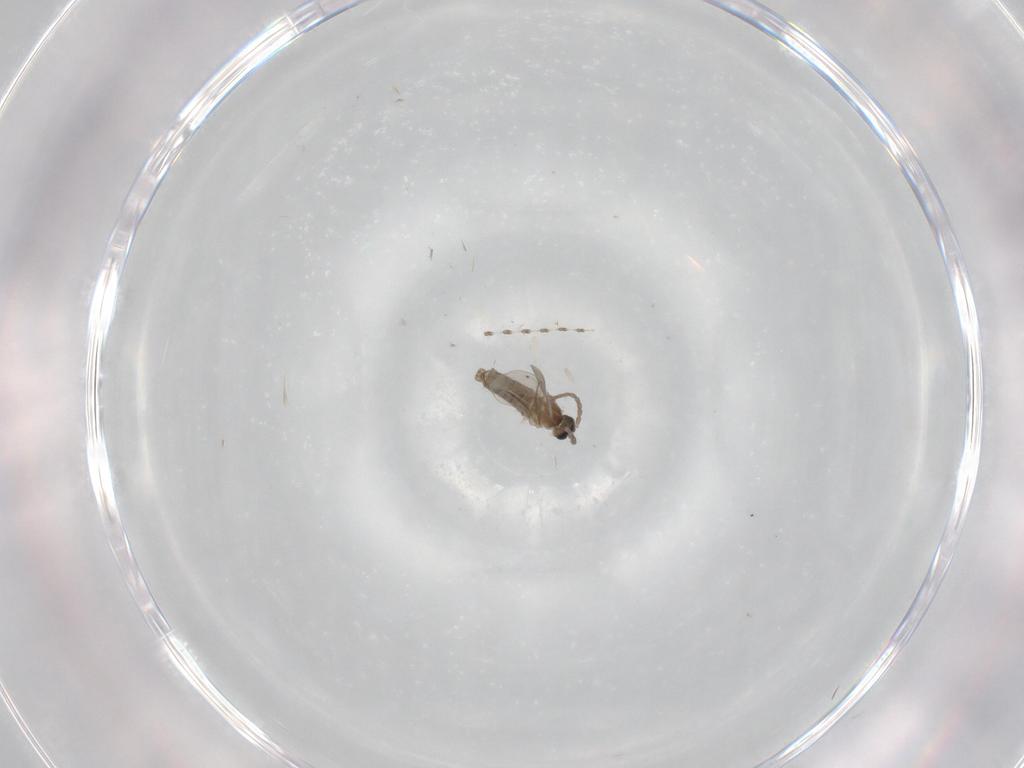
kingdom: Animalia
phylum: Arthropoda
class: Insecta
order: Diptera
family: Cecidomyiidae
